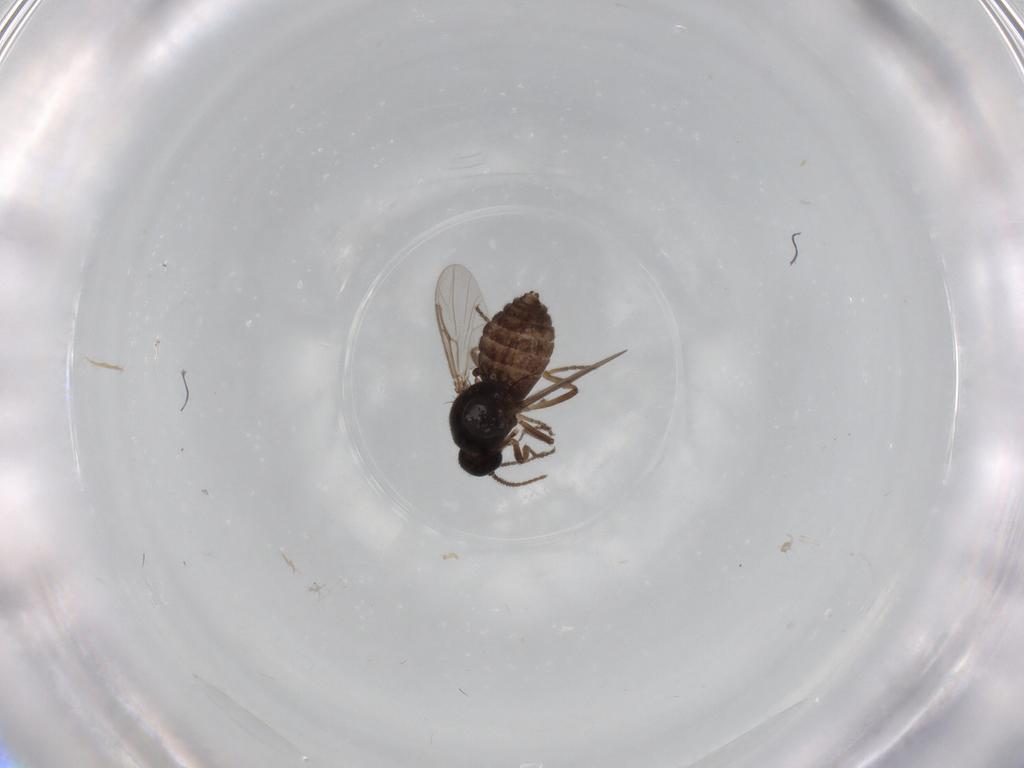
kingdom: Animalia
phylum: Arthropoda
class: Insecta
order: Diptera
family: Ceratopogonidae
